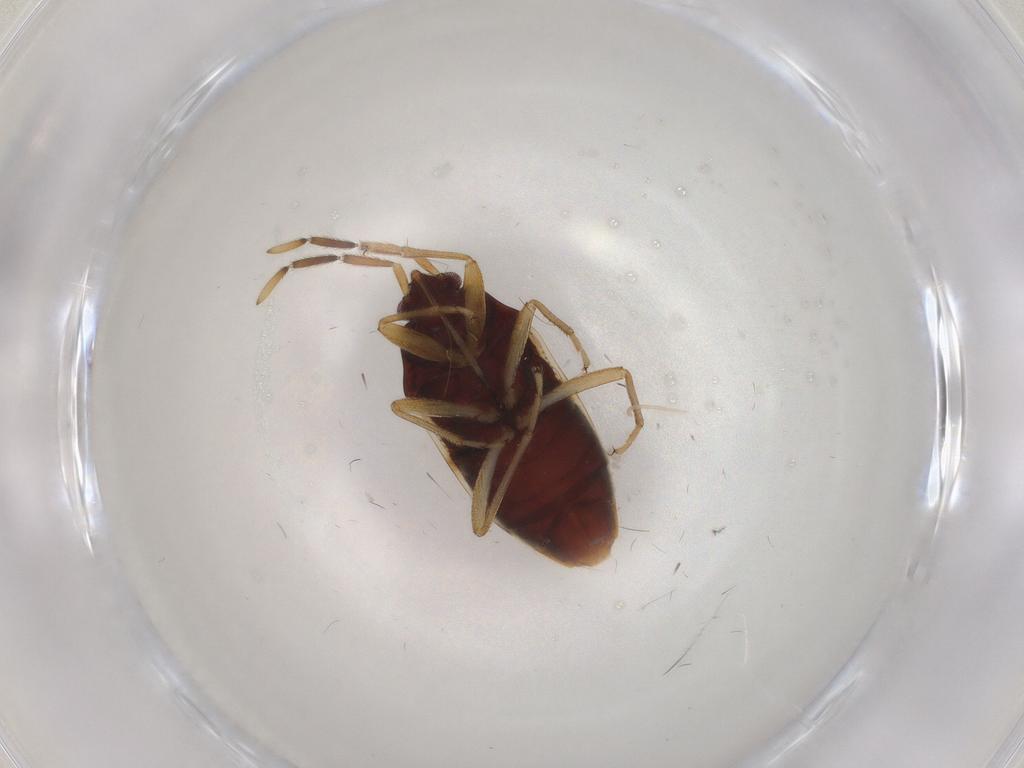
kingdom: Animalia
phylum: Arthropoda
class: Insecta
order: Hemiptera
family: Rhyparochromidae
